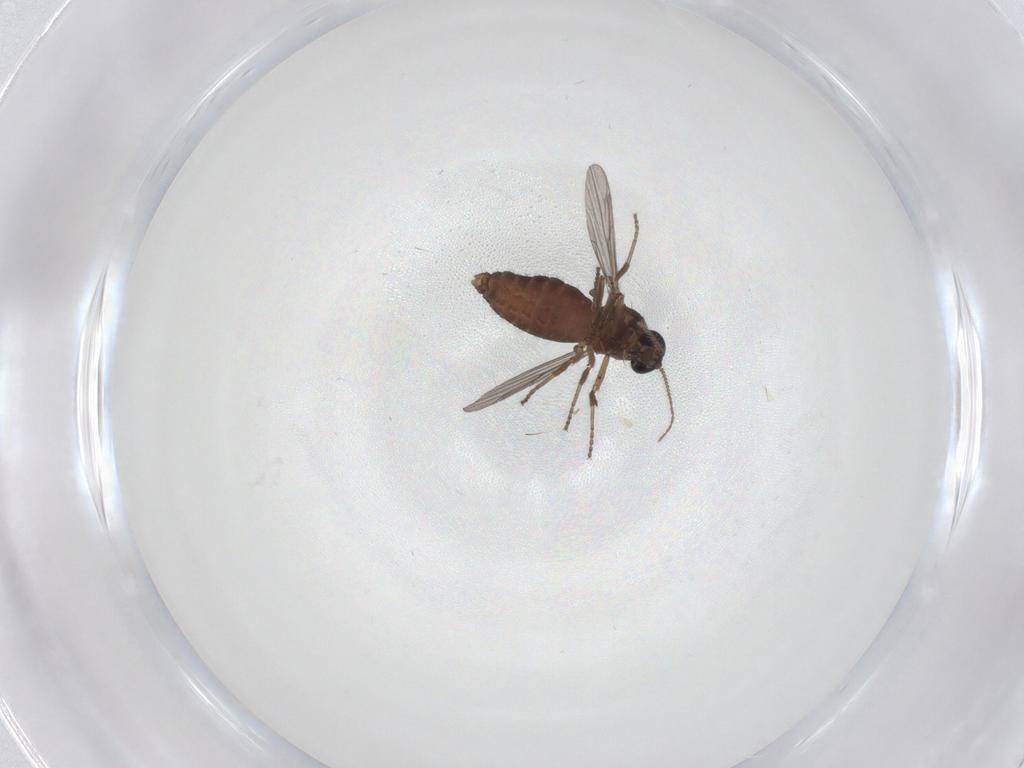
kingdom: Animalia
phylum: Arthropoda
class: Insecta
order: Diptera
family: Ceratopogonidae
